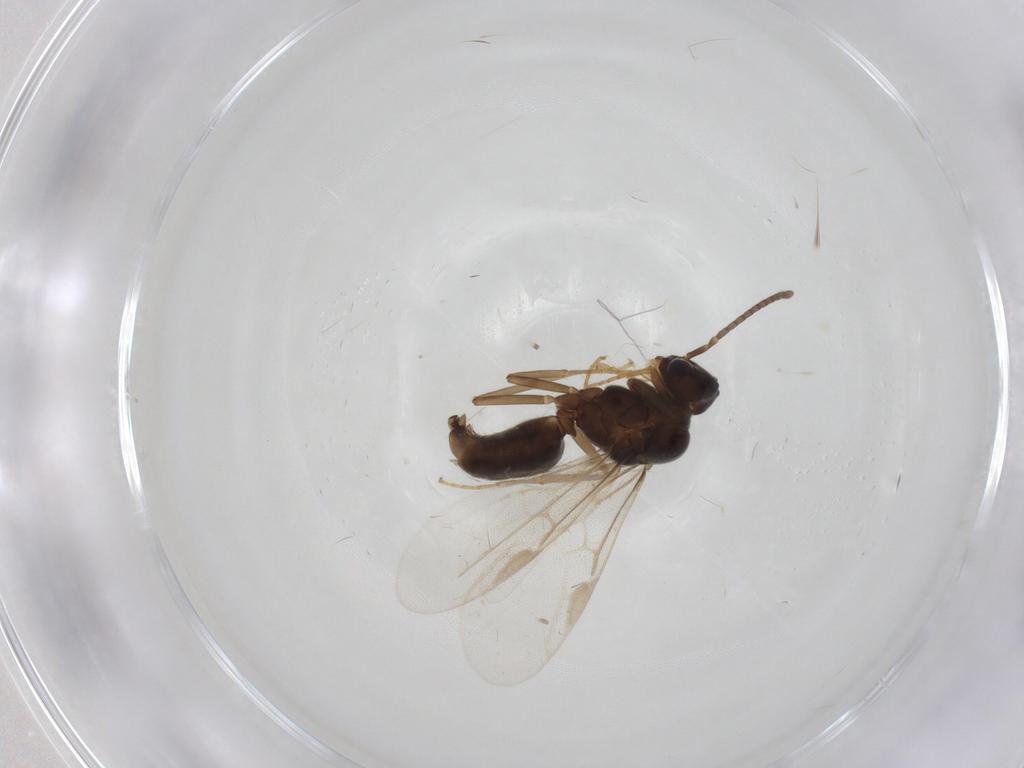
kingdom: Animalia
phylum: Arthropoda
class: Insecta
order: Hymenoptera
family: Formicidae
